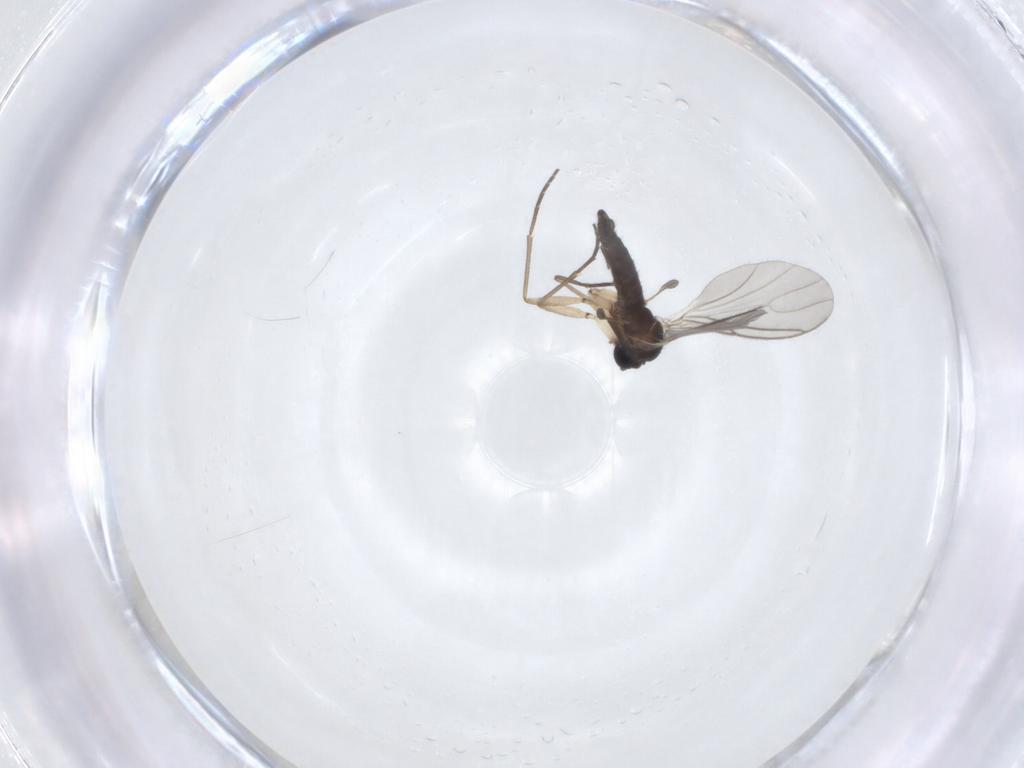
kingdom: Animalia
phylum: Arthropoda
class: Insecta
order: Diptera
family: Sciaridae
